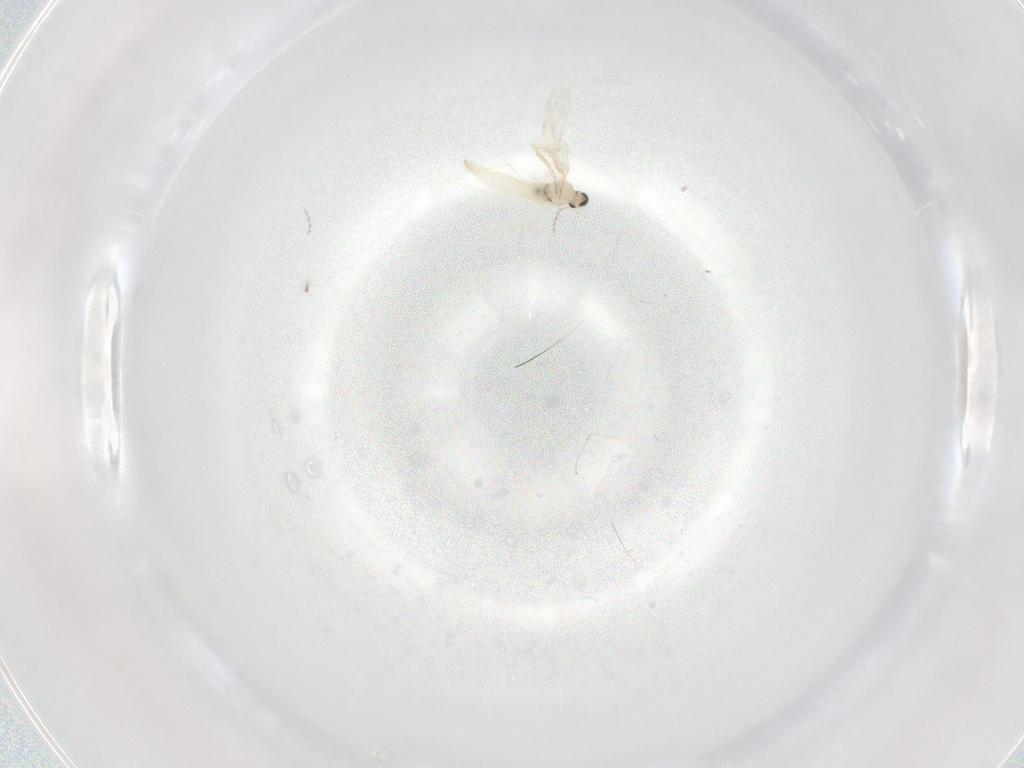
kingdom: Animalia
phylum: Arthropoda
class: Insecta
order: Diptera
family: Cecidomyiidae
